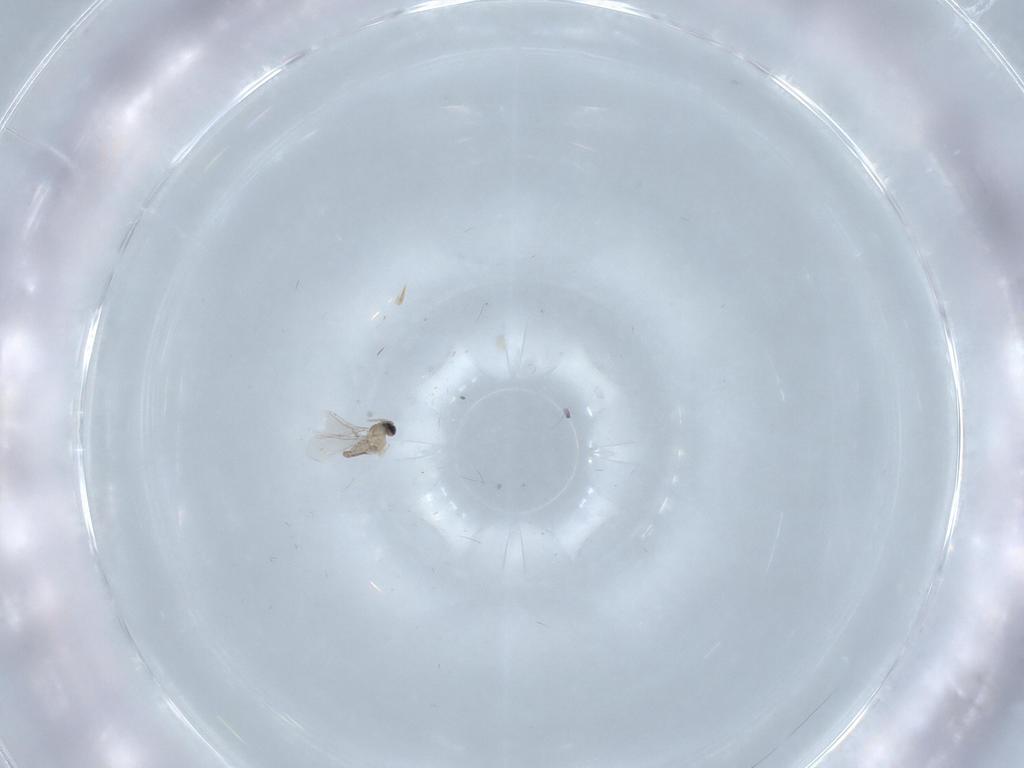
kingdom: Animalia
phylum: Arthropoda
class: Insecta
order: Diptera
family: Cecidomyiidae
